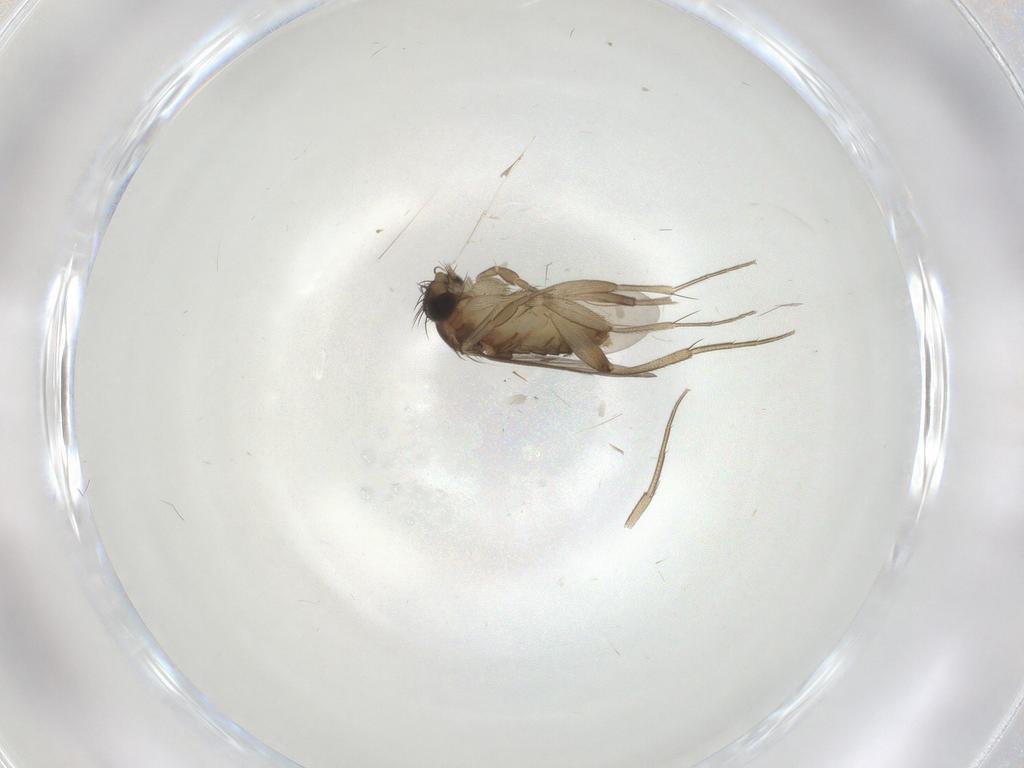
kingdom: Animalia
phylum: Arthropoda
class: Insecta
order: Diptera
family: Phoridae
